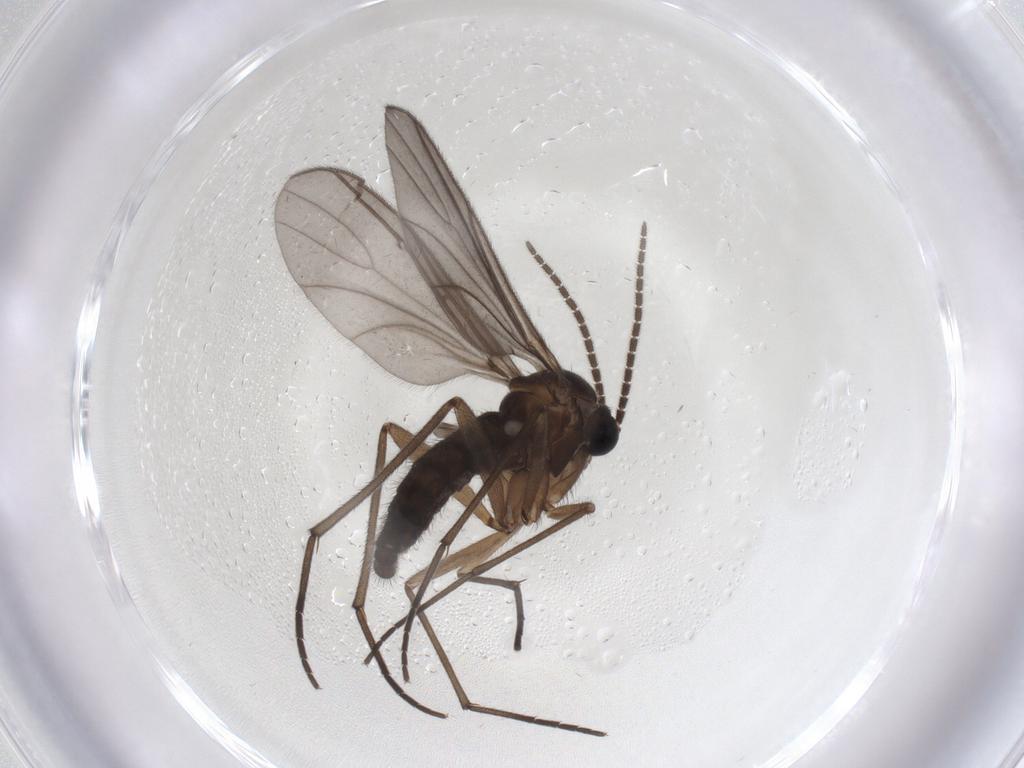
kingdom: Animalia
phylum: Arthropoda
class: Insecta
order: Diptera
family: Sciaridae
